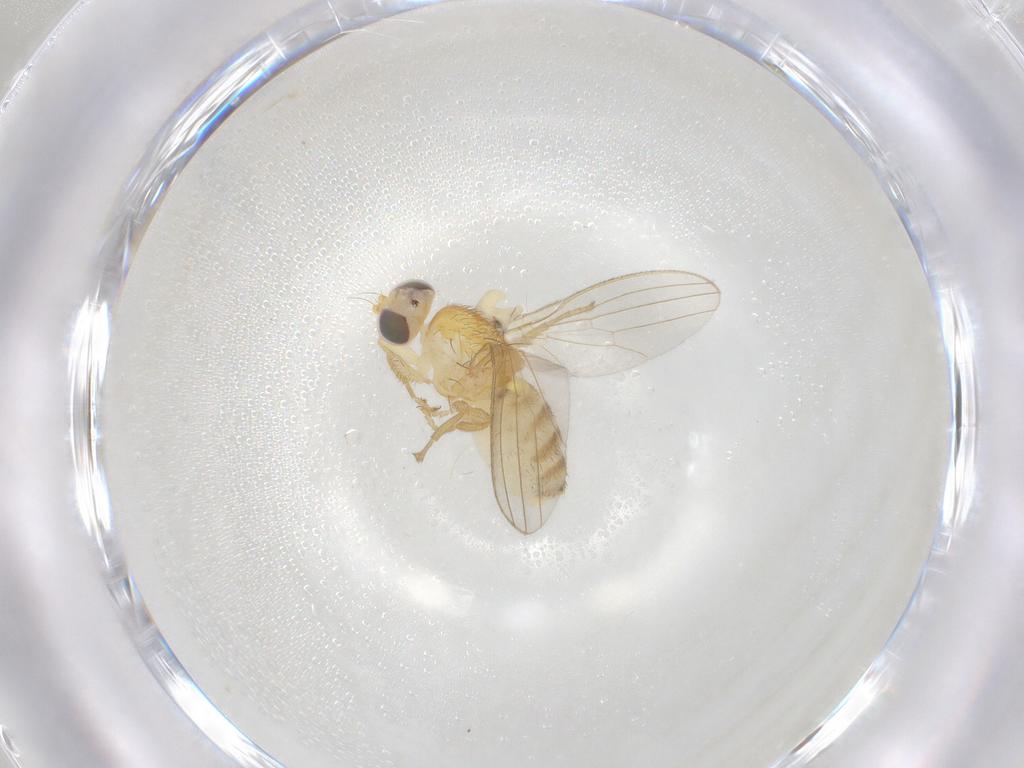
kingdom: Animalia
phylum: Arthropoda
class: Insecta
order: Diptera
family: Chyromyidae
